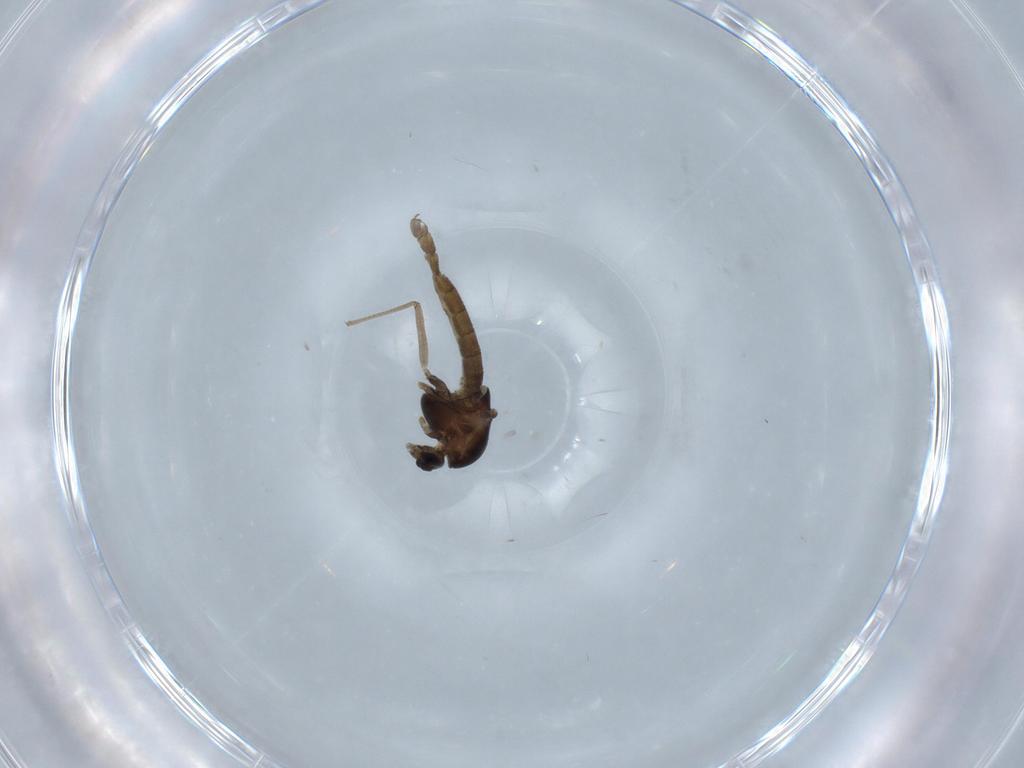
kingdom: Animalia
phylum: Arthropoda
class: Insecta
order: Diptera
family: Chironomidae
